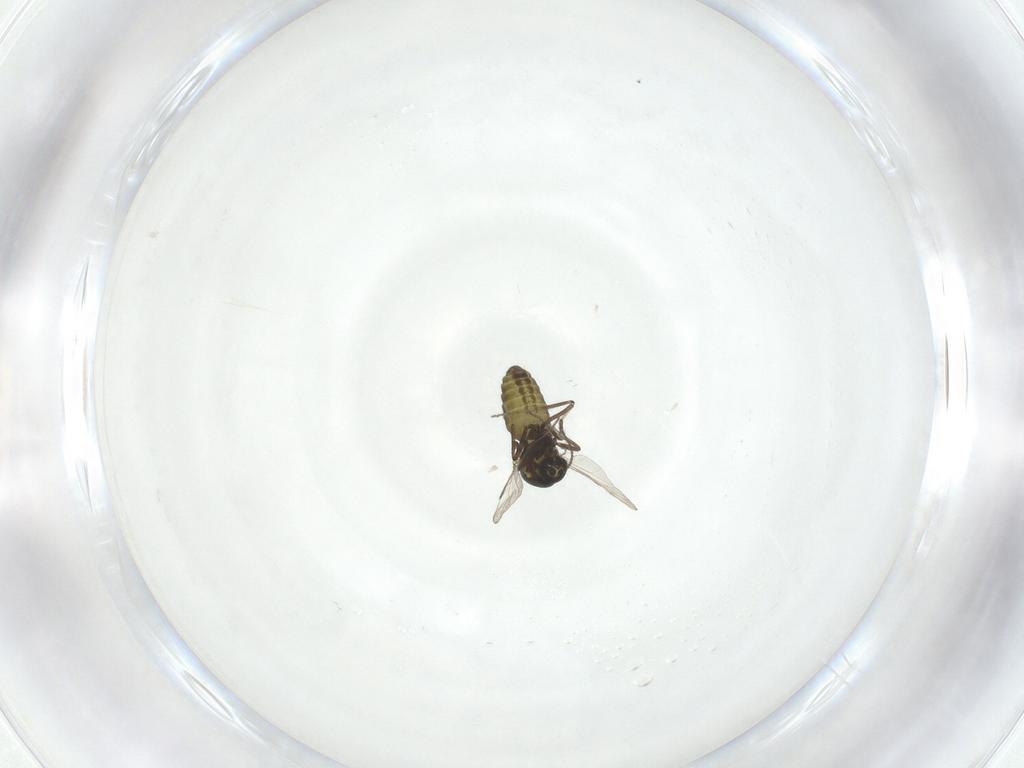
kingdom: Animalia
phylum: Arthropoda
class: Insecta
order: Diptera
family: Ceratopogonidae
